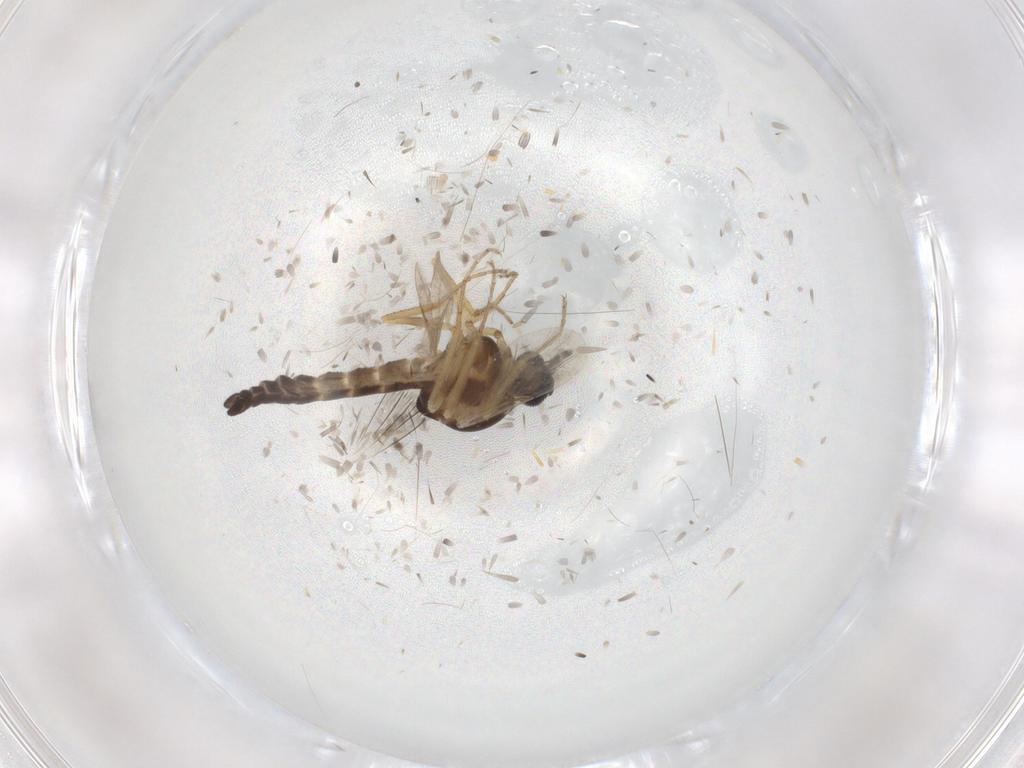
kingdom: Animalia
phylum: Arthropoda
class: Insecta
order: Diptera
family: Ceratopogonidae
